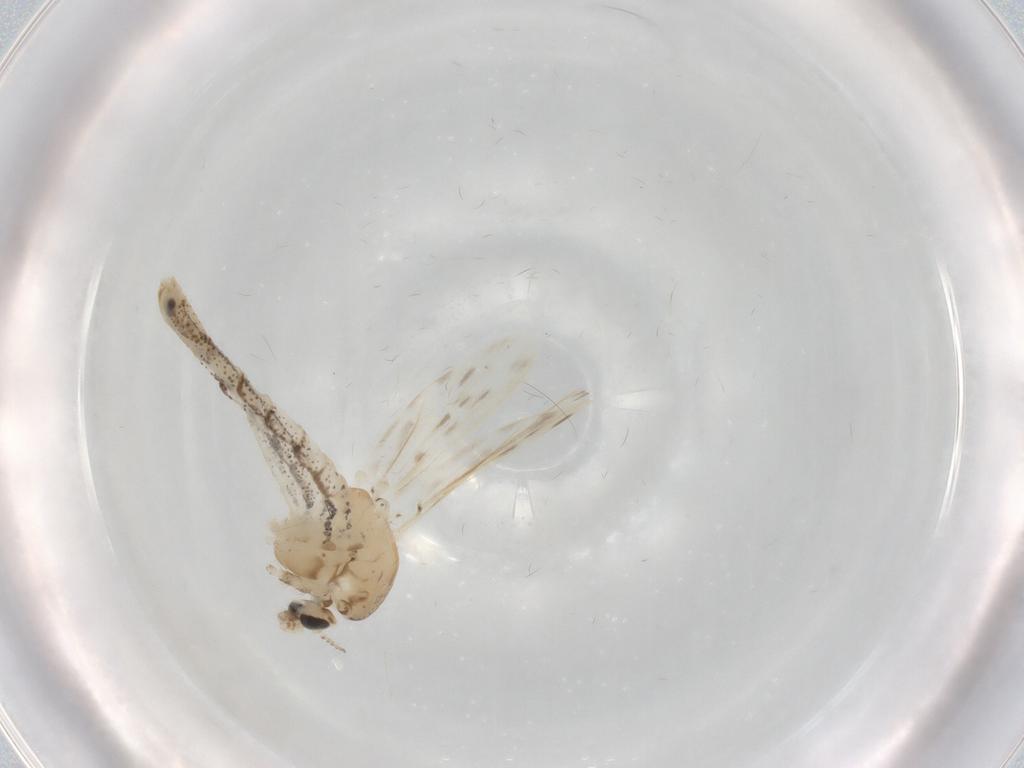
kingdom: Animalia
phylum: Arthropoda
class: Insecta
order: Diptera
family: Chaoboridae
